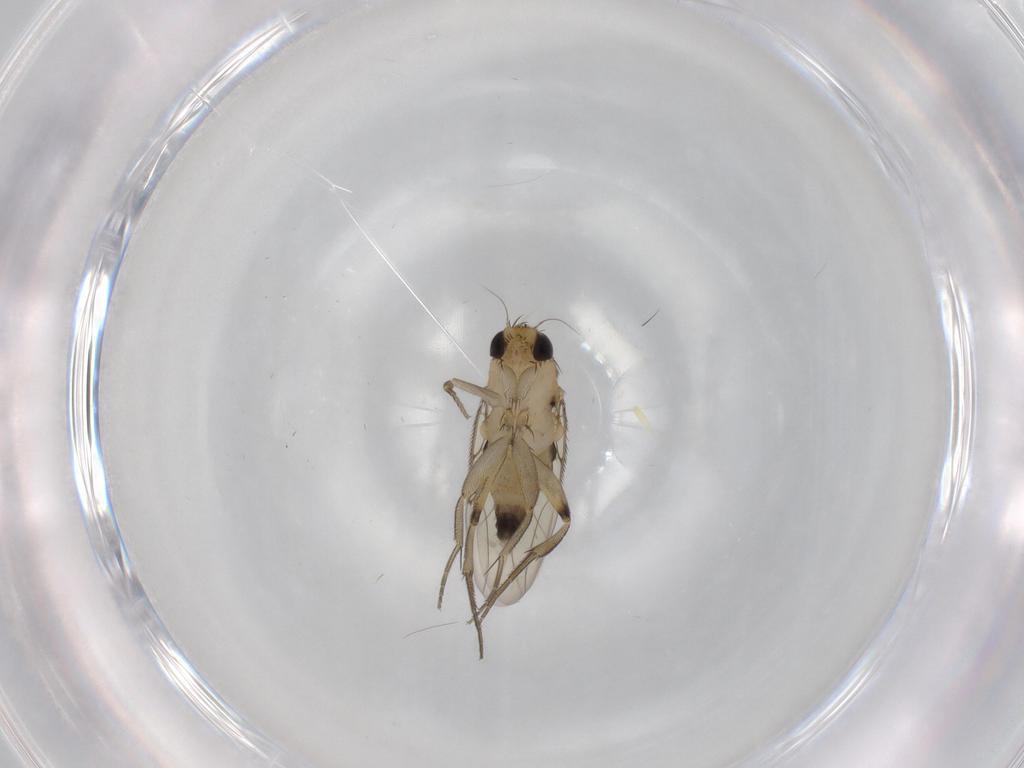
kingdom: Animalia
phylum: Arthropoda
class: Insecta
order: Diptera
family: Phoridae
